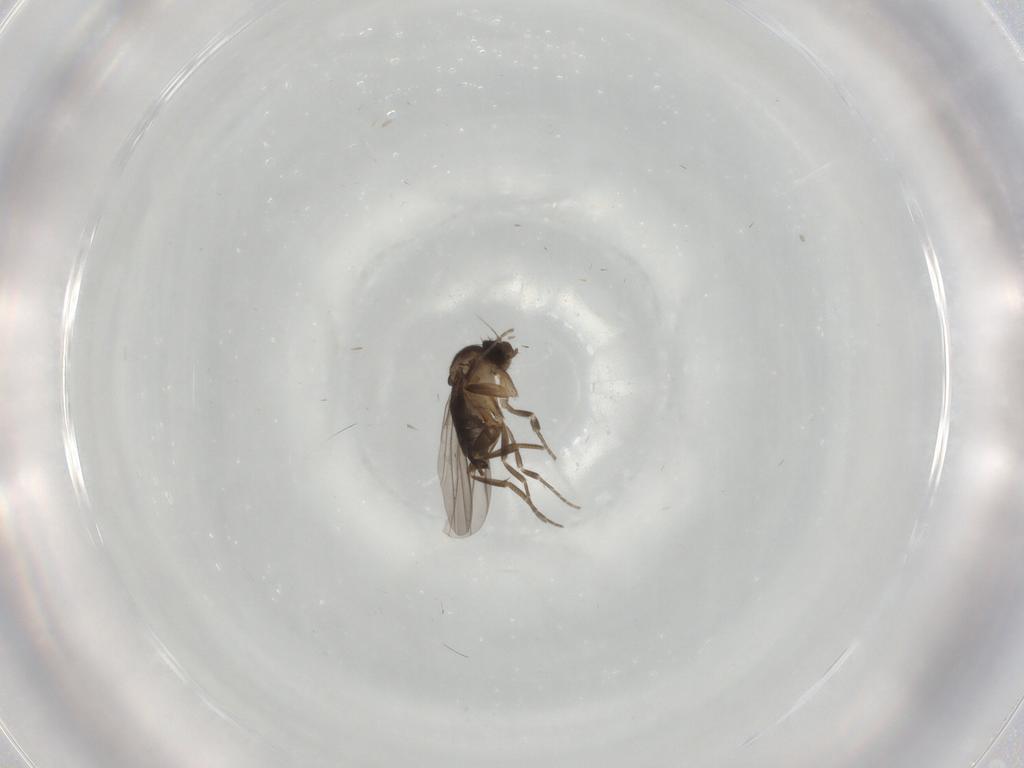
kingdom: Animalia
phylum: Arthropoda
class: Insecta
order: Diptera
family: Phoridae
